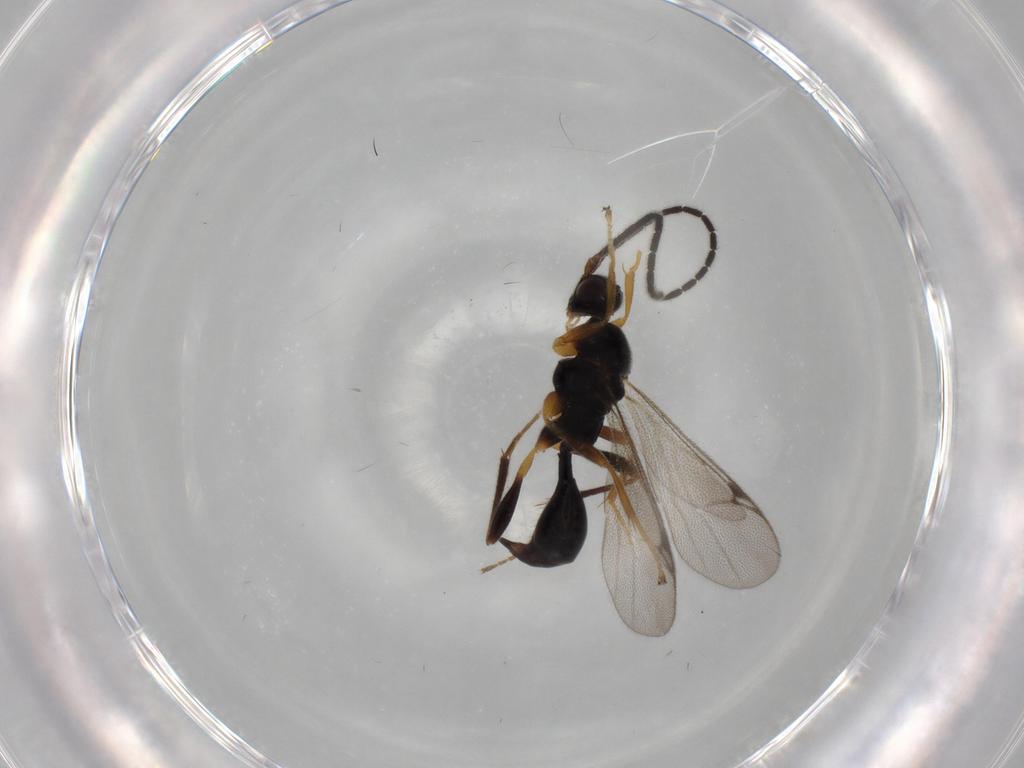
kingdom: Animalia
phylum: Arthropoda
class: Insecta
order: Hymenoptera
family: Proctotrupidae
